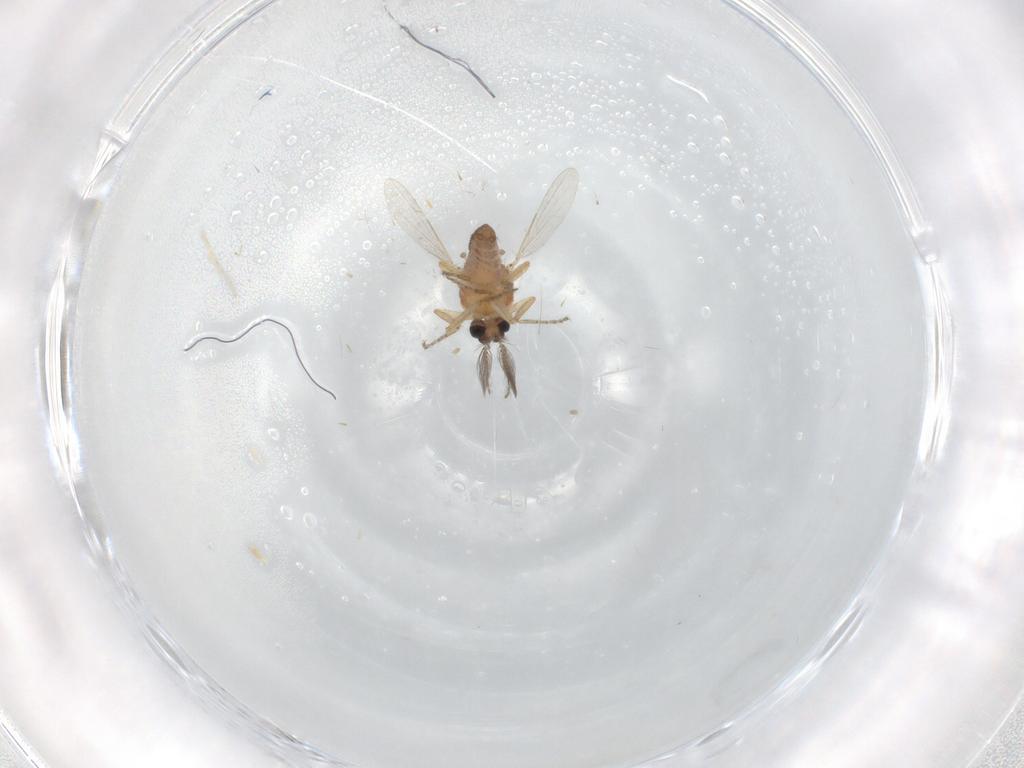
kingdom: Animalia
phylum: Arthropoda
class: Insecta
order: Diptera
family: Ceratopogonidae
